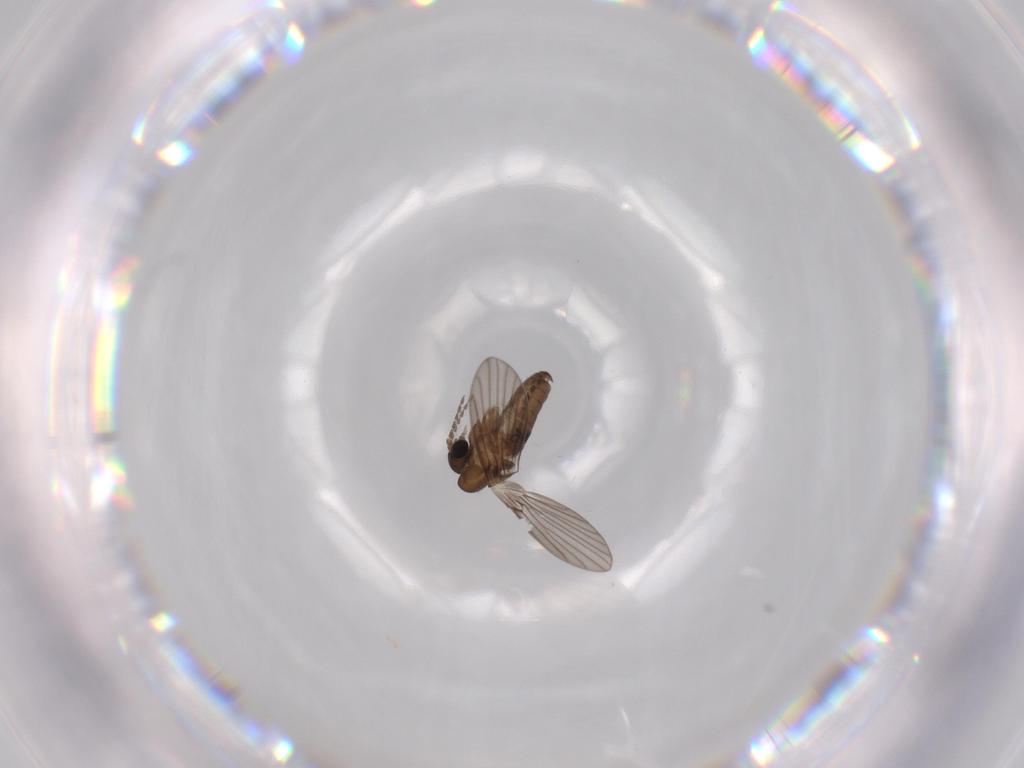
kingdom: Animalia
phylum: Arthropoda
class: Insecta
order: Diptera
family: Psychodidae
